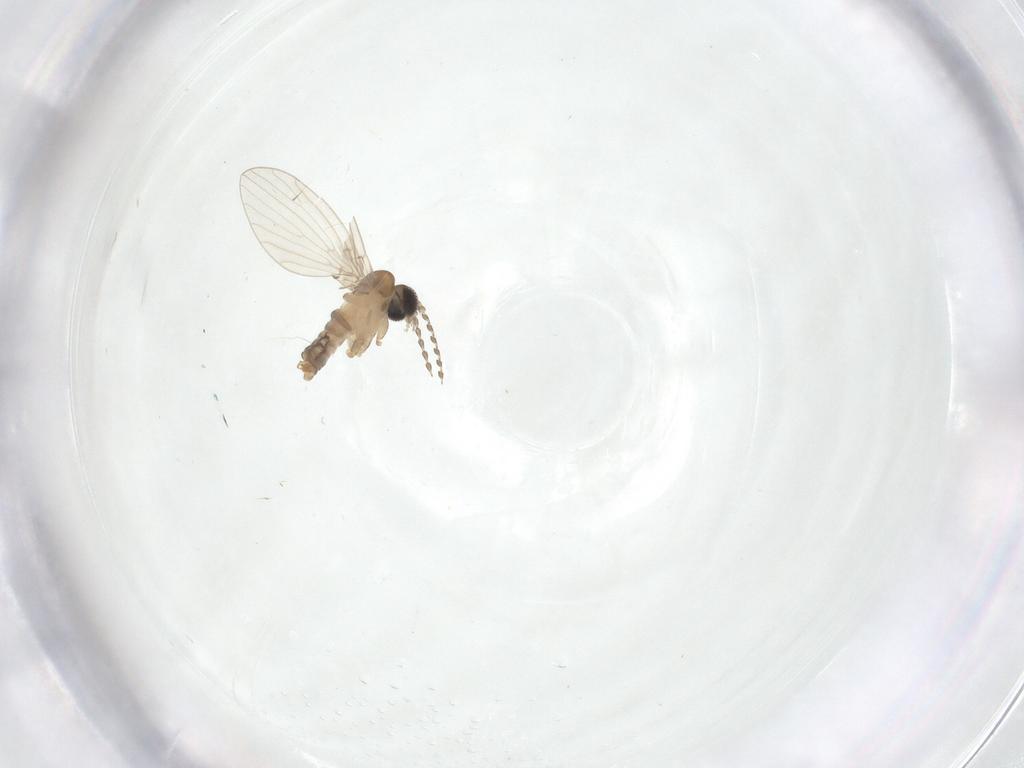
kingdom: Animalia
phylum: Arthropoda
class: Insecta
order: Diptera
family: Psychodidae
